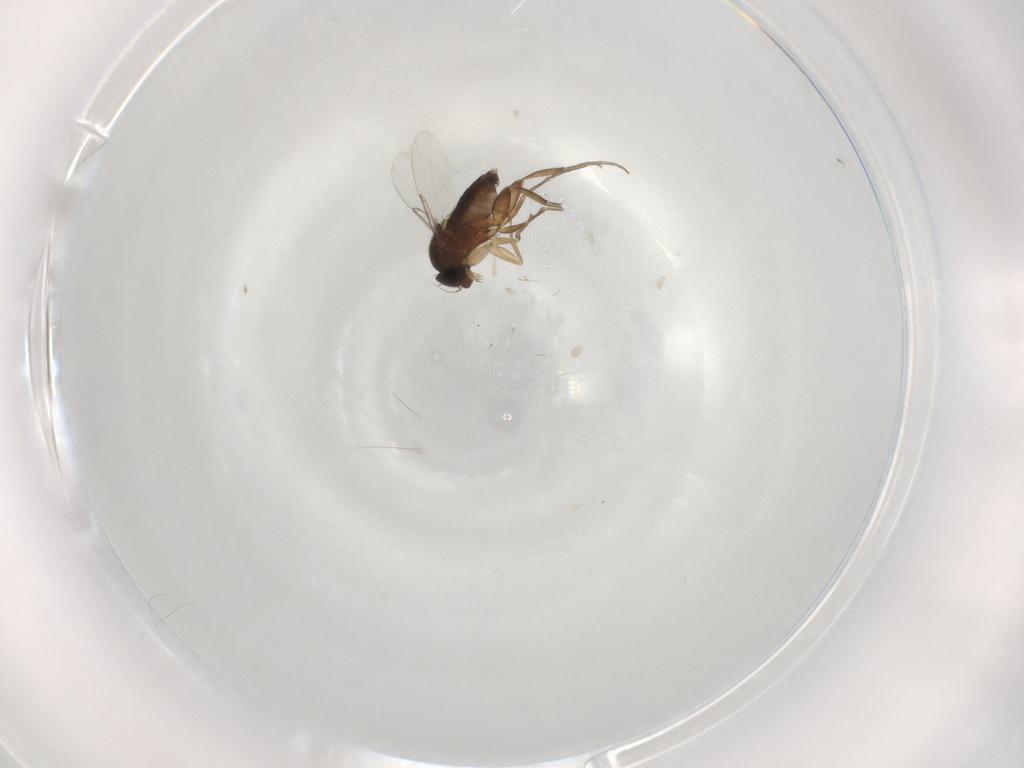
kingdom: Animalia
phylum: Arthropoda
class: Insecta
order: Diptera
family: Phoridae
